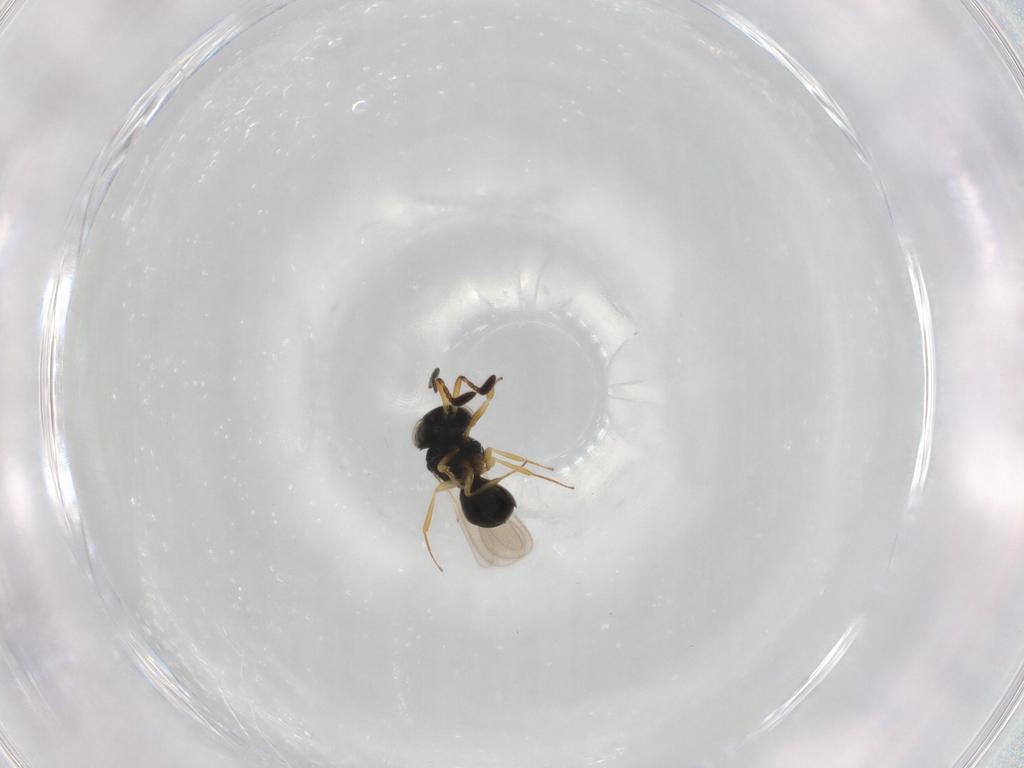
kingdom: Animalia
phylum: Arthropoda
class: Insecta
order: Hymenoptera
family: Scelionidae
